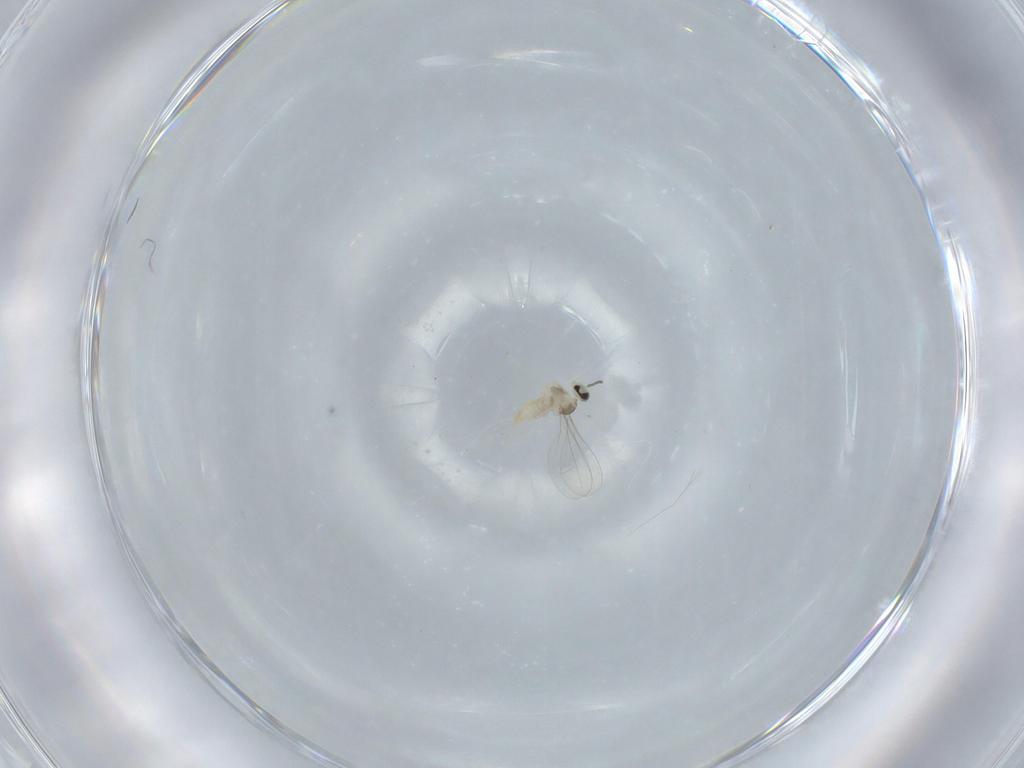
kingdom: Animalia
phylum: Arthropoda
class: Insecta
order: Diptera
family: Cecidomyiidae
